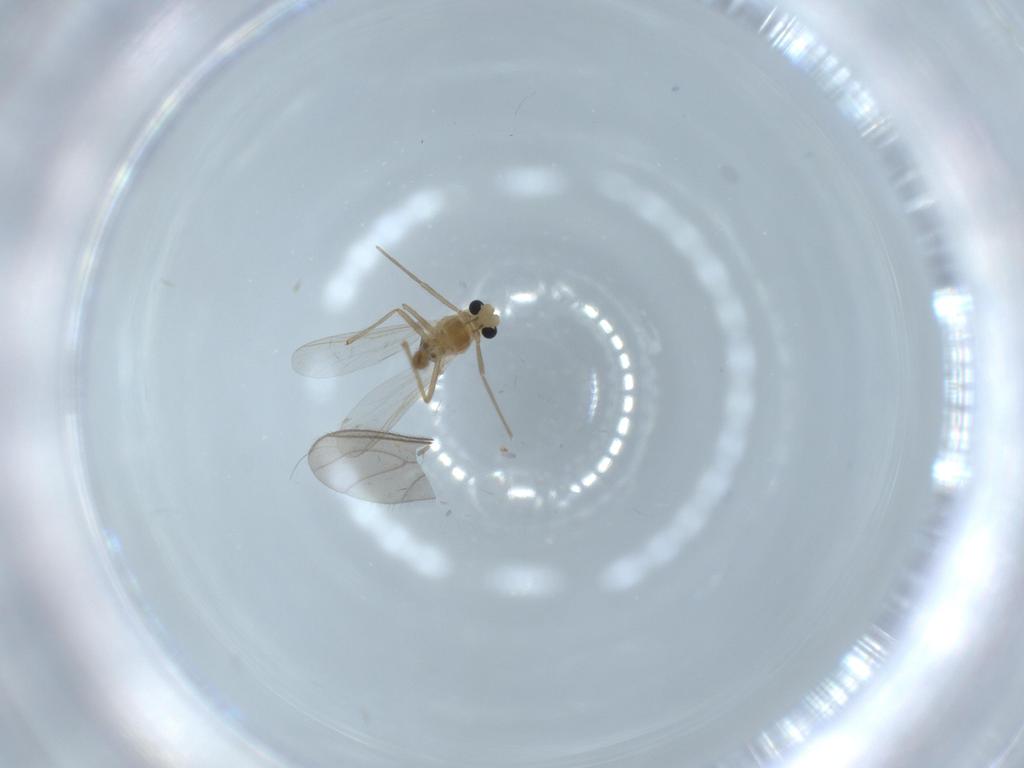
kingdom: Animalia
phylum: Arthropoda
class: Insecta
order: Diptera
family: Chironomidae
